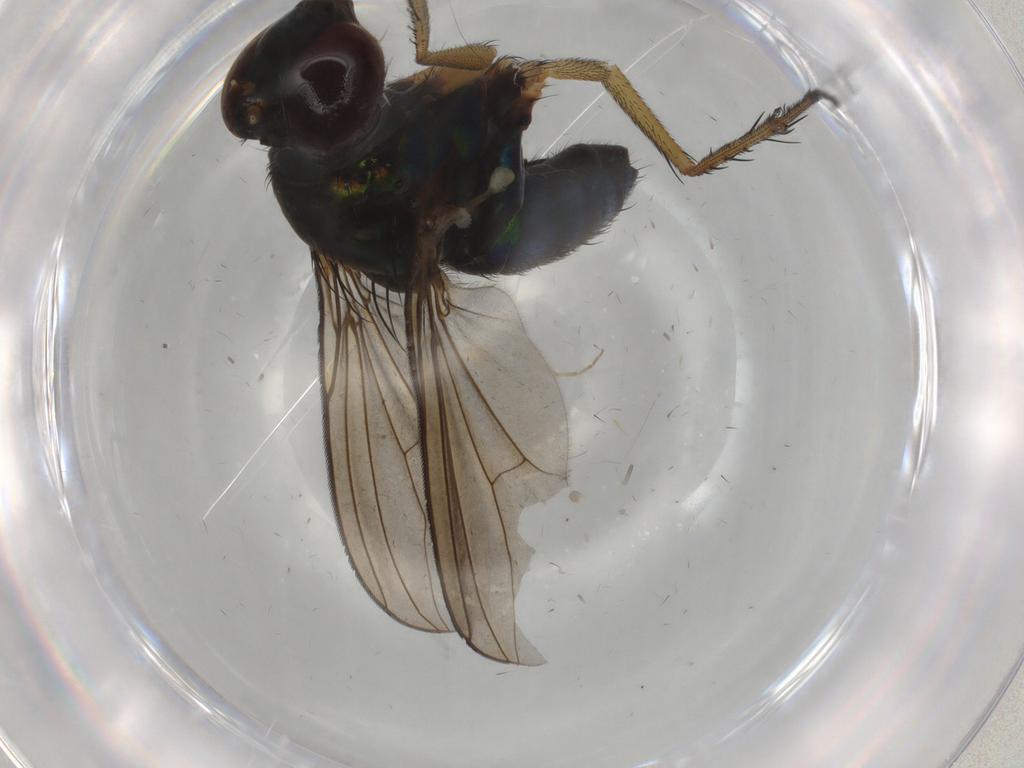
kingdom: Animalia
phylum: Arthropoda
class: Insecta
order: Diptera
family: Dolichopodidae
